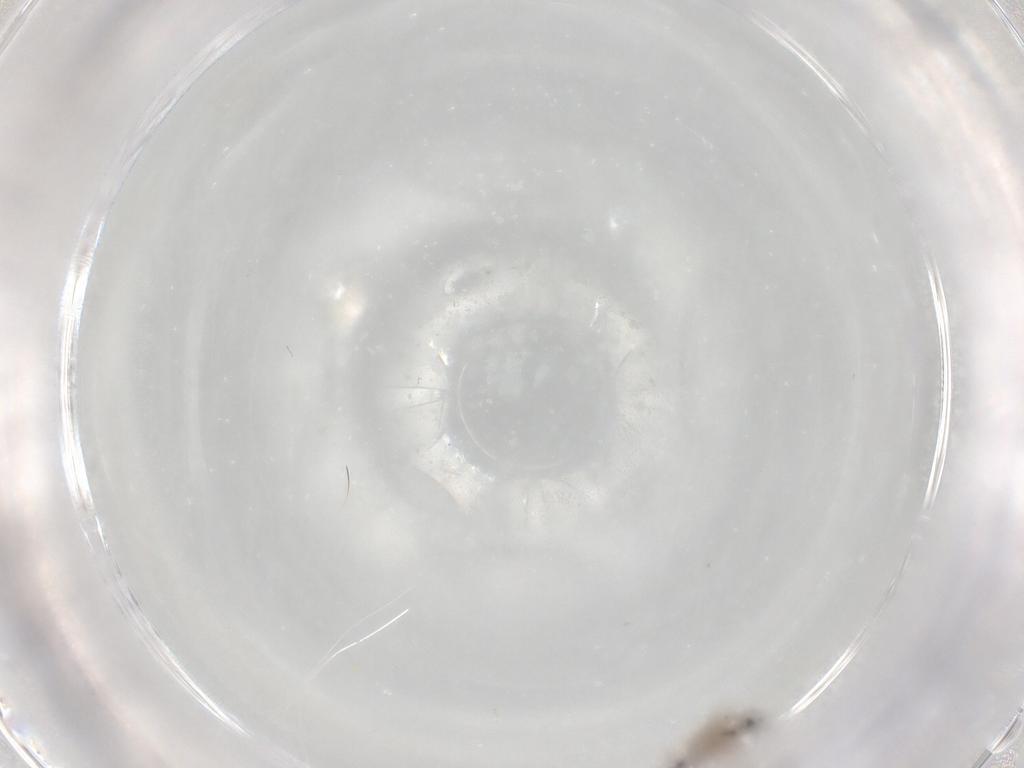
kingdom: Animalia
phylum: Arthropoda
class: Insecta
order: Diptera
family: Cecidomyiidae
